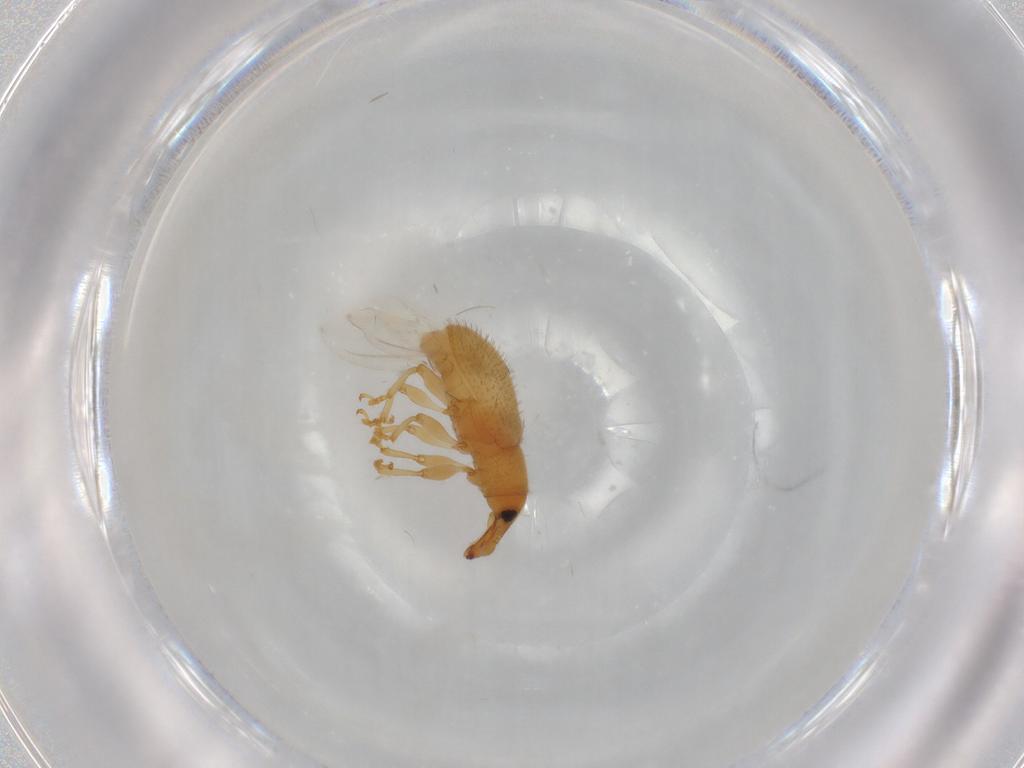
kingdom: Animalia
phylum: Arthropoda
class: Insecta
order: Coleoptera
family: Curculionidae
